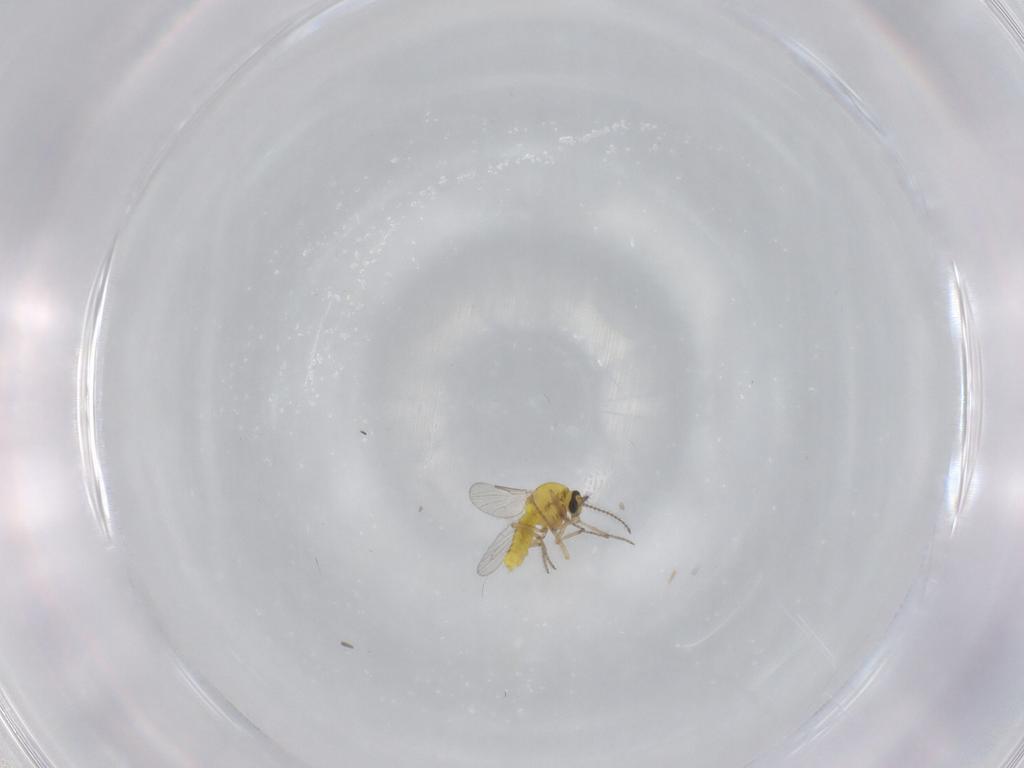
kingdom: Animalia
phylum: Arthropoda
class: Insecta
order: Diptera
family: Ceratopogonidae
